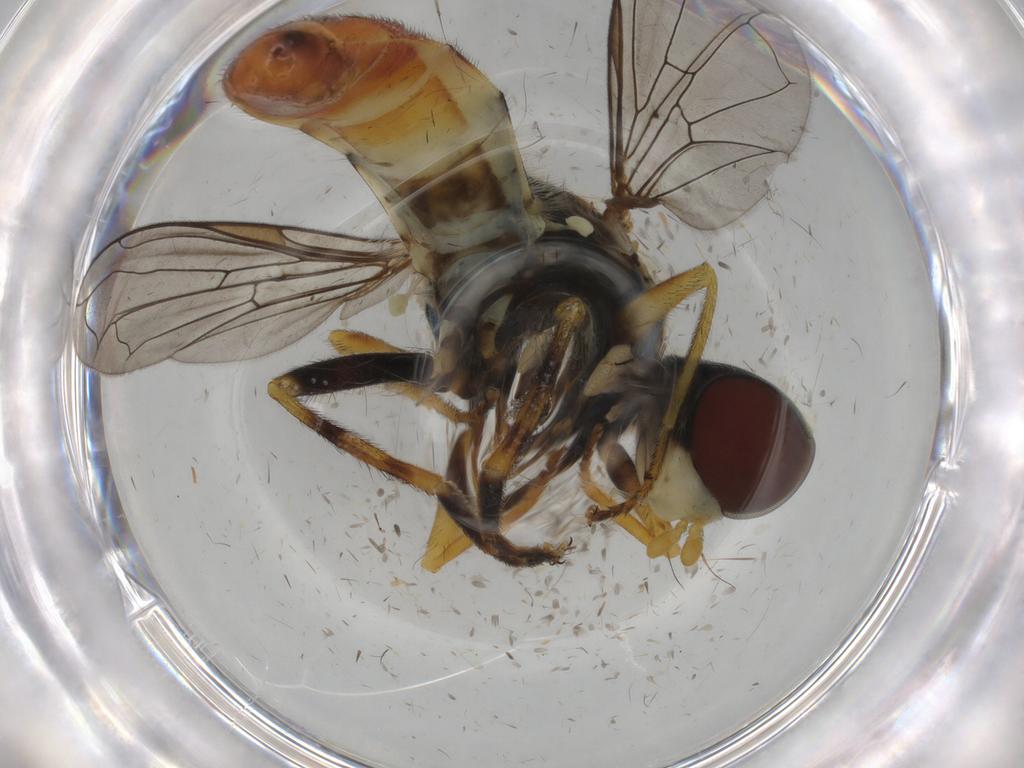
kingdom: Animalia
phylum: Arthropoda
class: Insecta
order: Diptera
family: Syrphidae
